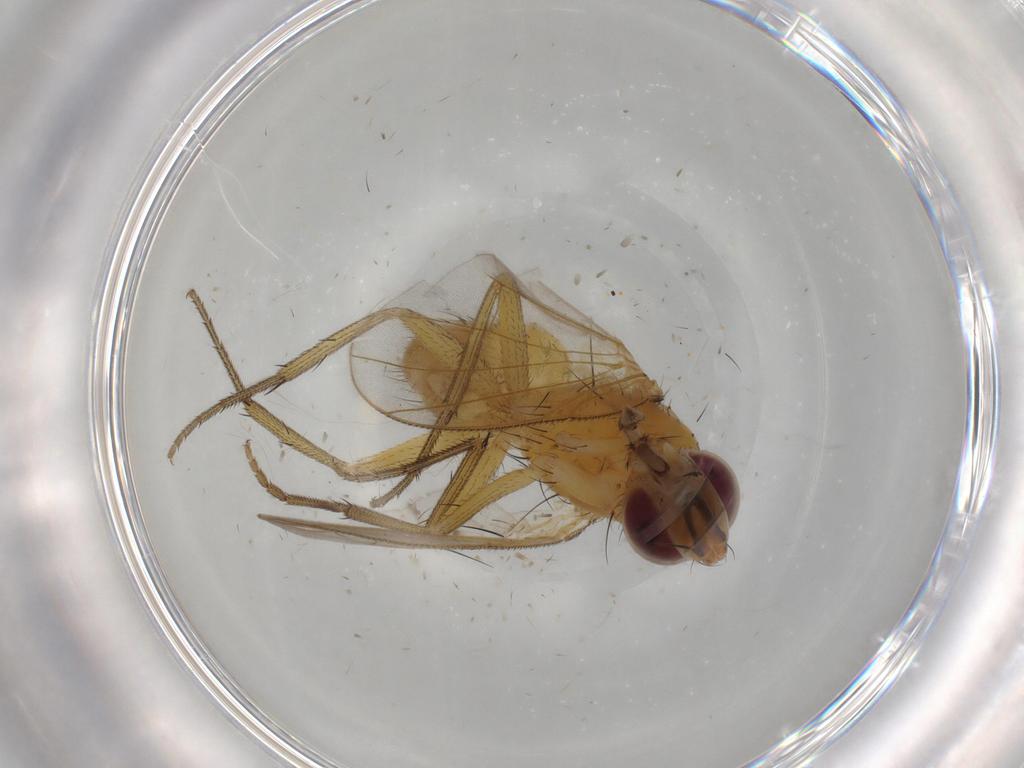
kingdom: Animalia
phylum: Arthropoda
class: Insecta
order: Diptera
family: Muscidae
